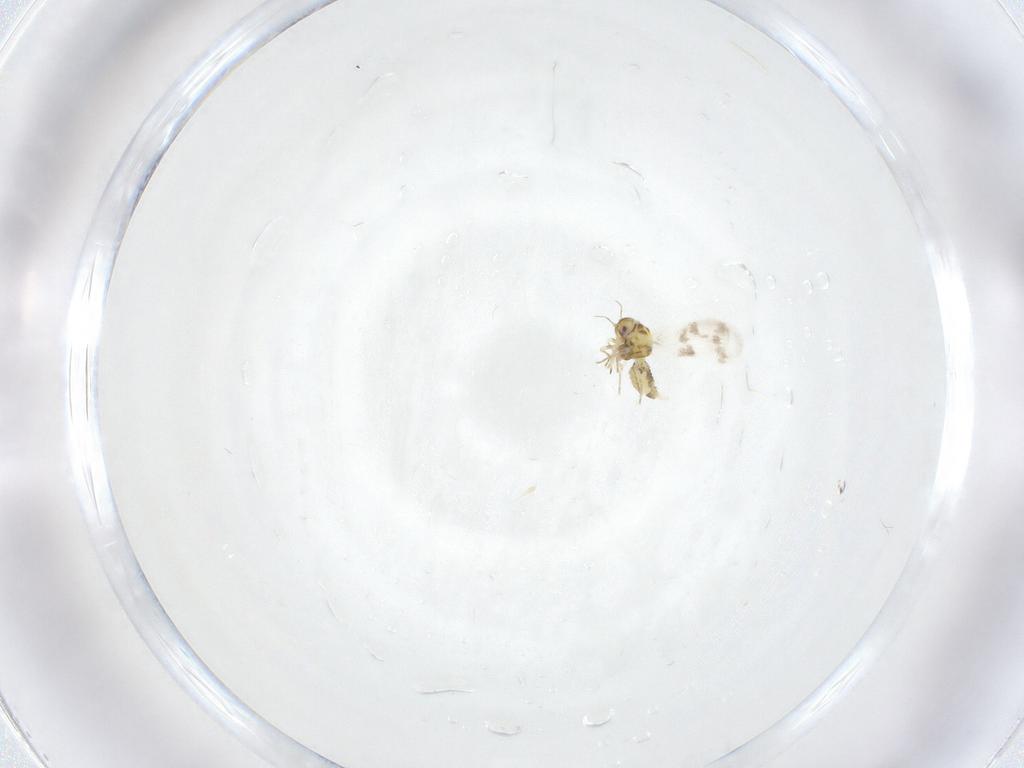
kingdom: Animalia
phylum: Arthropoda
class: Insecta
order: Hemiptera
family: Aleyrodidae
